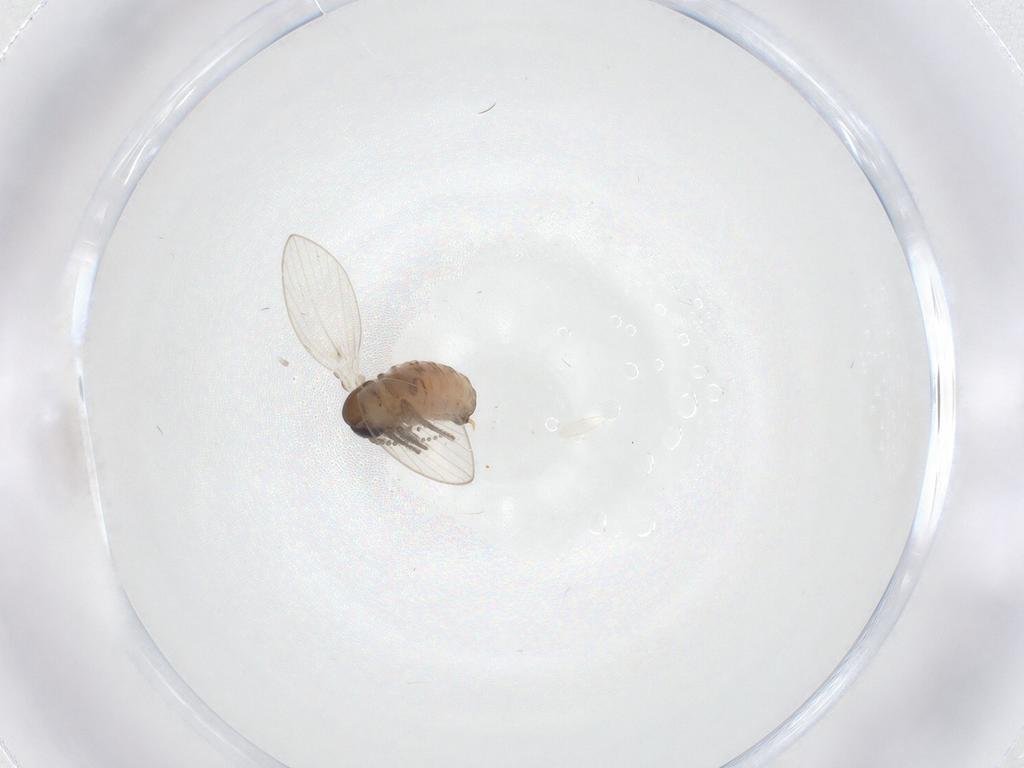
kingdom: Animalia
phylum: Arthropoda
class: Insecta
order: Diptera
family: Psychodidae
